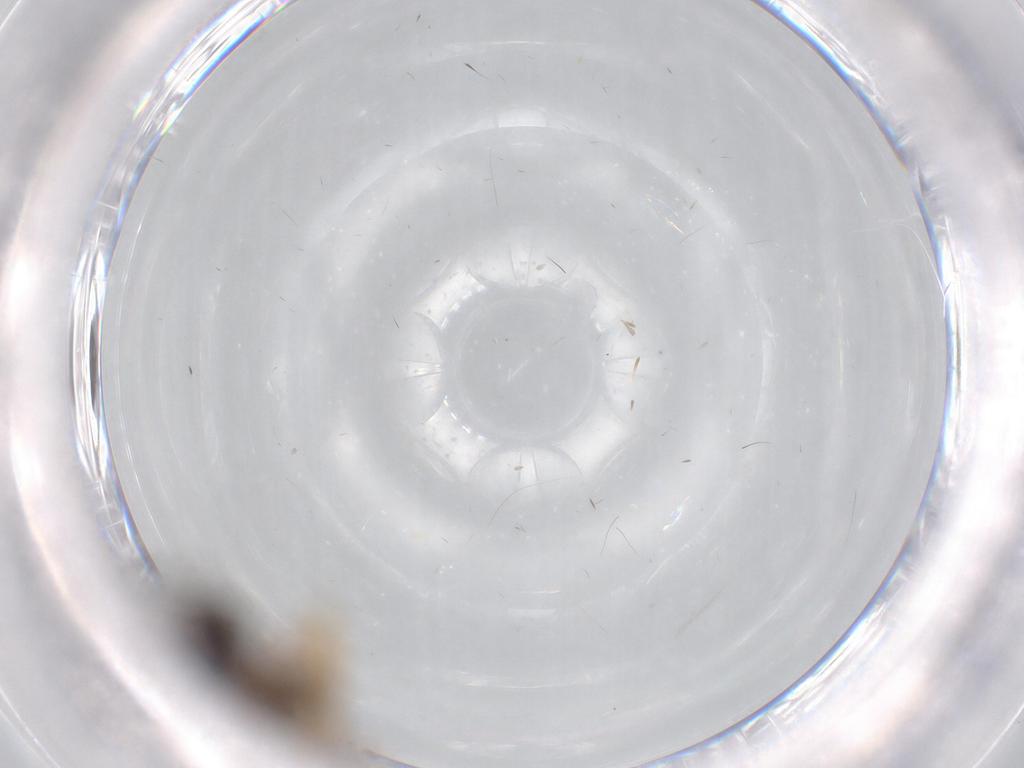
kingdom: Animalia
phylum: Arthropoda
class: Insecta
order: Hymenoptera
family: Diapriidae
